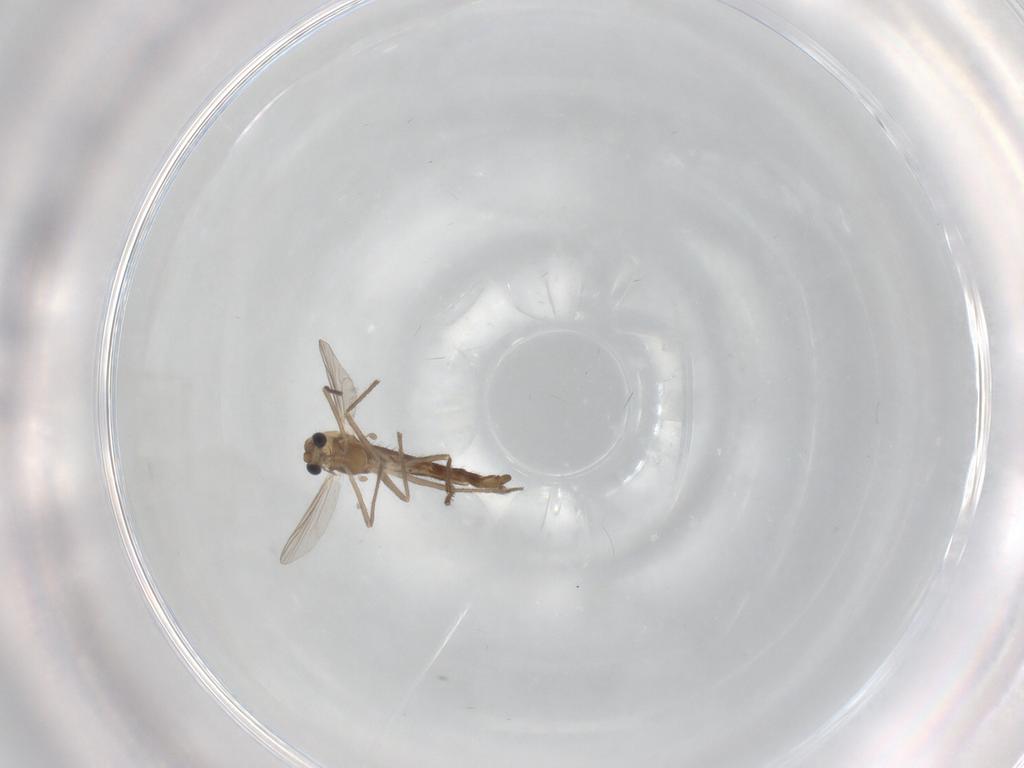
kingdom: Animalia
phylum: Arthropoda
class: Insecta
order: Diptera
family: Chironomidae
